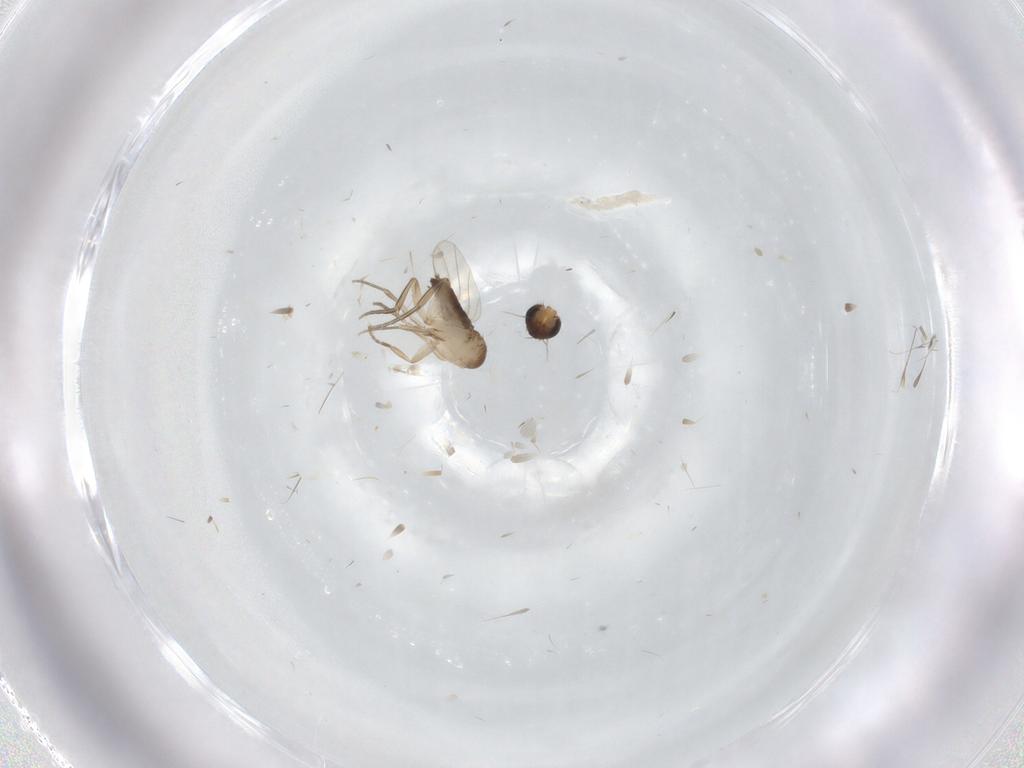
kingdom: Animalia
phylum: Arthropoda
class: Insecta
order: Diptera
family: Phoridae
